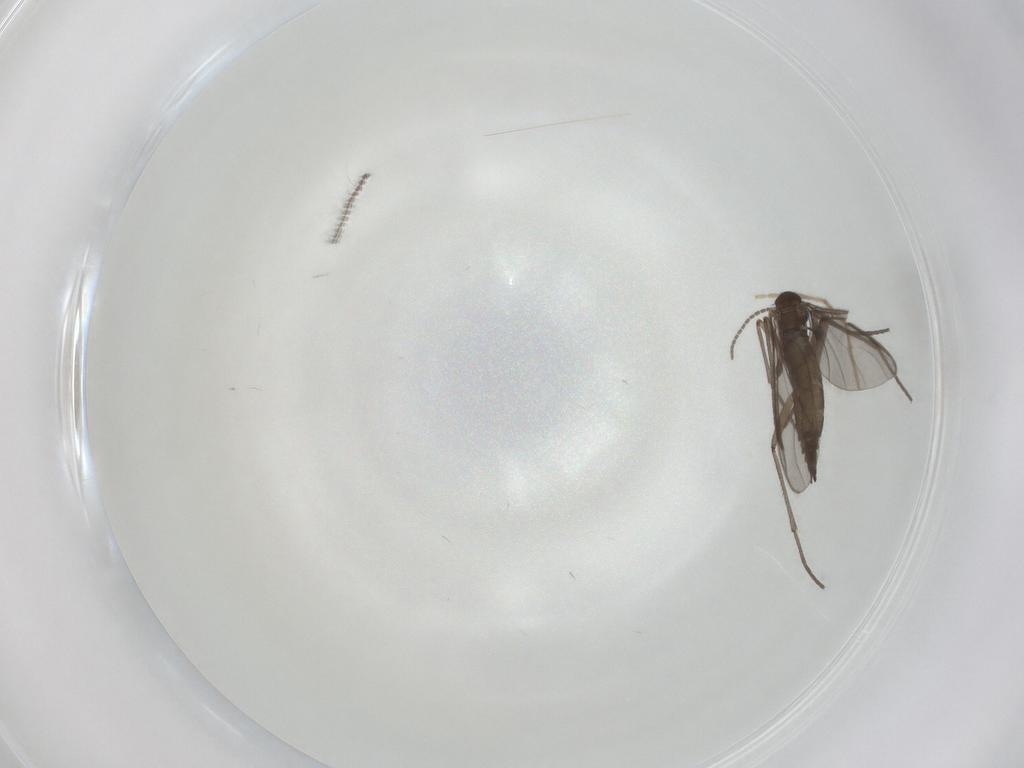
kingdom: Animalia
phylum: Arthropoda
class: Insecta
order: Diptera
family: Chironomidae
